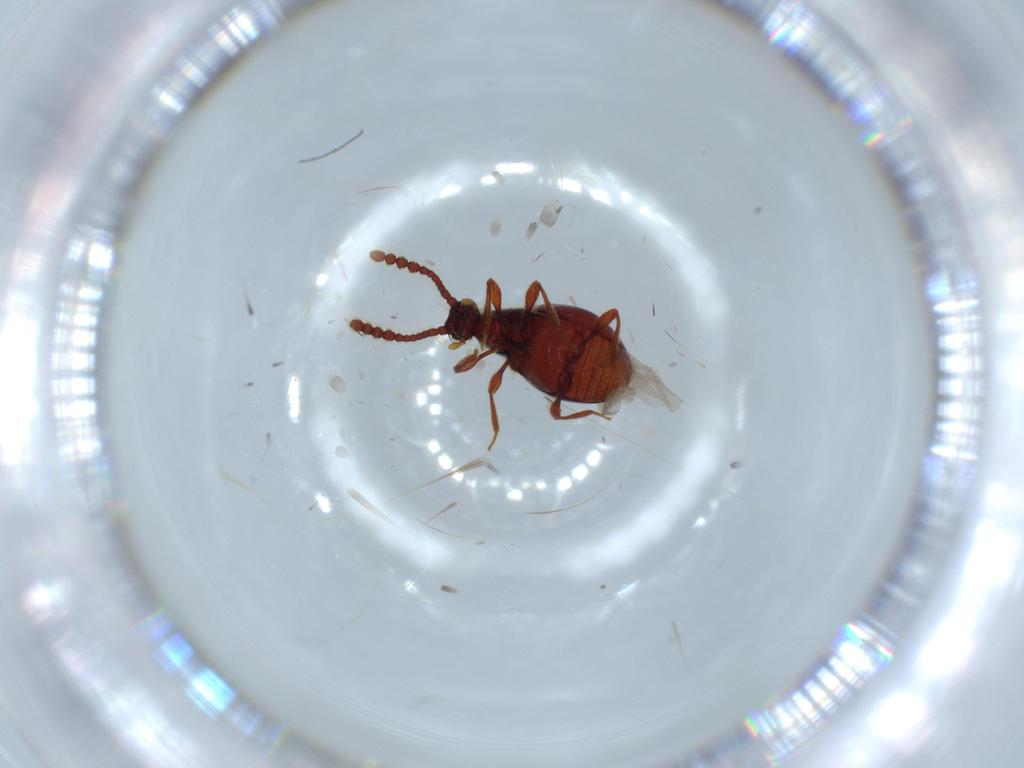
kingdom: Animalia
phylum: Arthropoda
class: Insecta
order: Coleoptera
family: Staphylinidae
